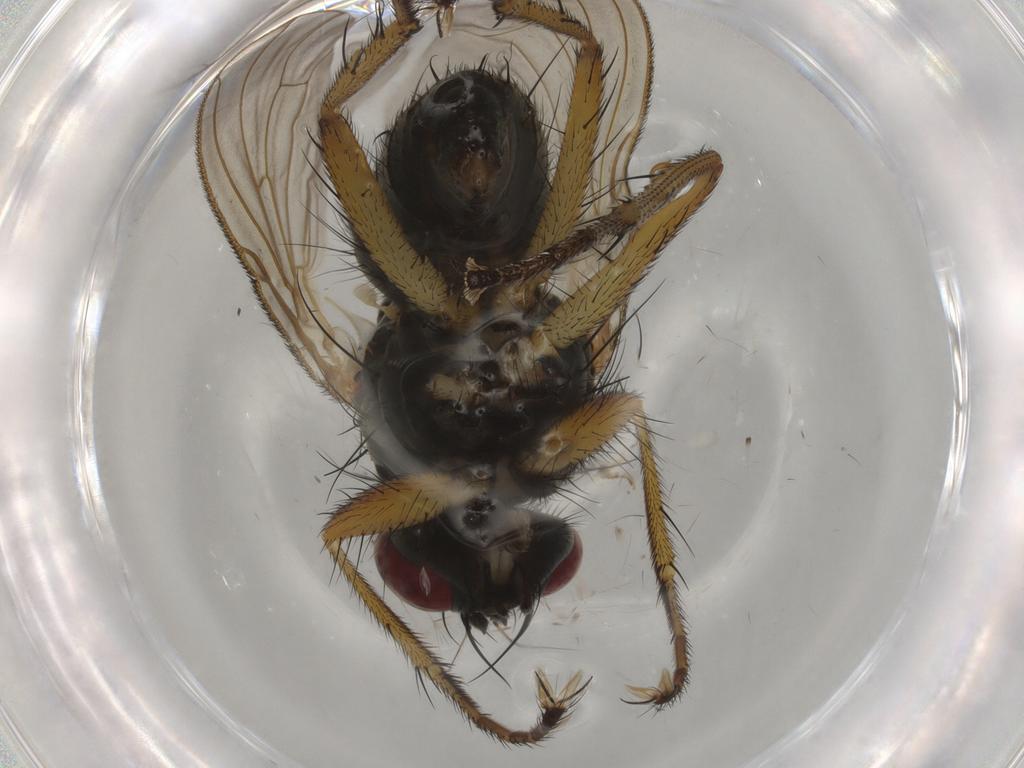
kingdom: Animalia
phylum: Arthropoda
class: Insecta
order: Diptera
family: Muscidae
